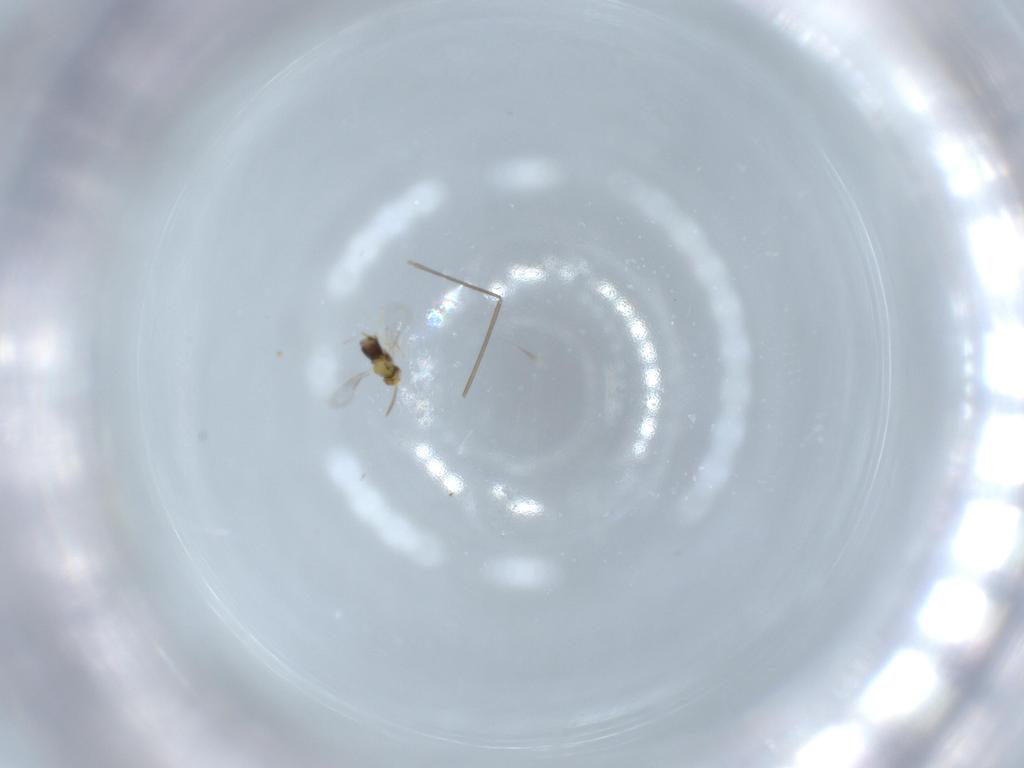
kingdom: Animalia
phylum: Arthropoda
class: Insecta
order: Hymenoptera
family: Aphelinidae
